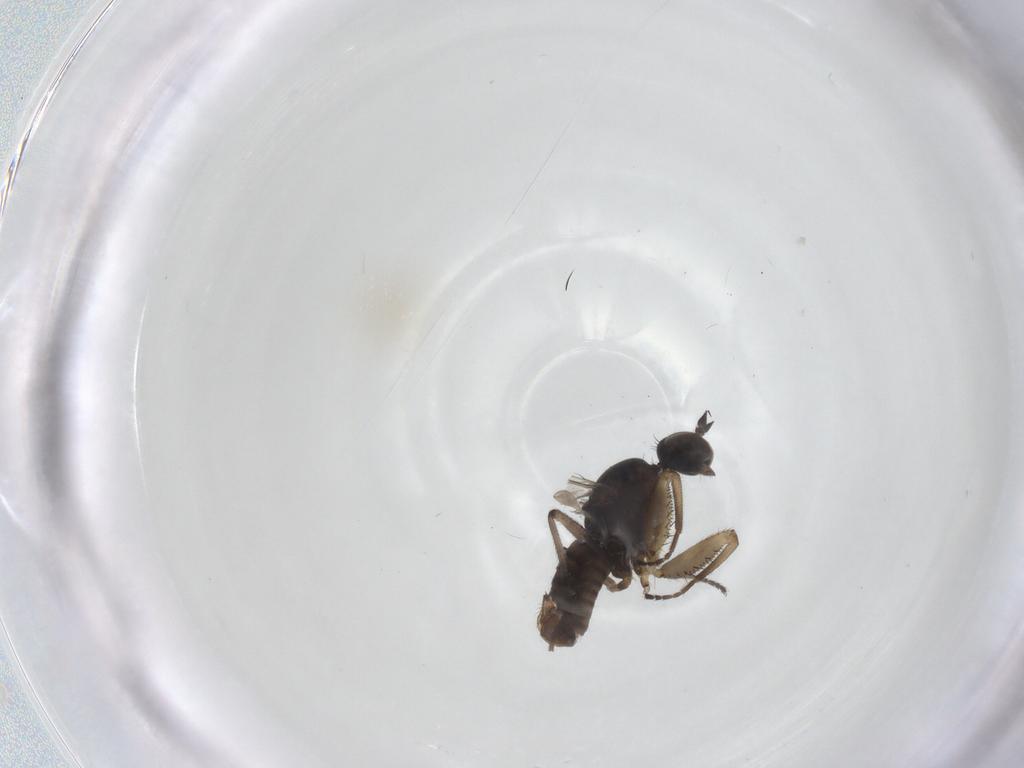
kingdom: Animalia
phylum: Arthropoda
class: Insecta
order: Diptera
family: Empididae
